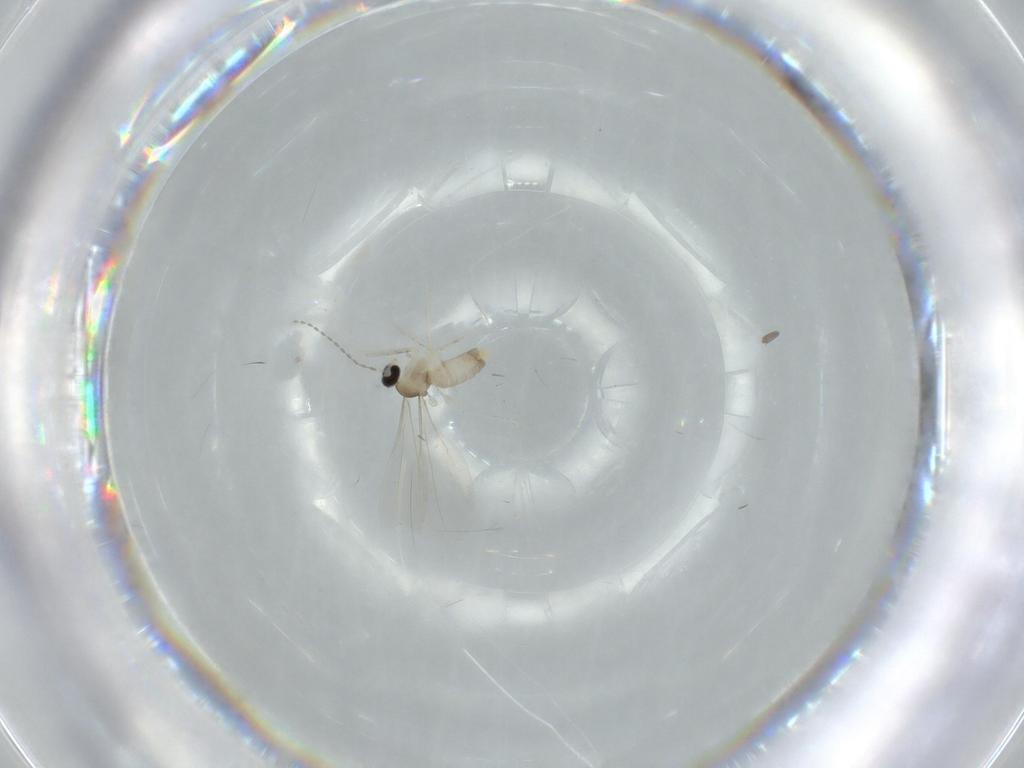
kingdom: Animalia
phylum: Arthropoda
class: Insecta
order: Diptera
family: Cecidomyiidae
